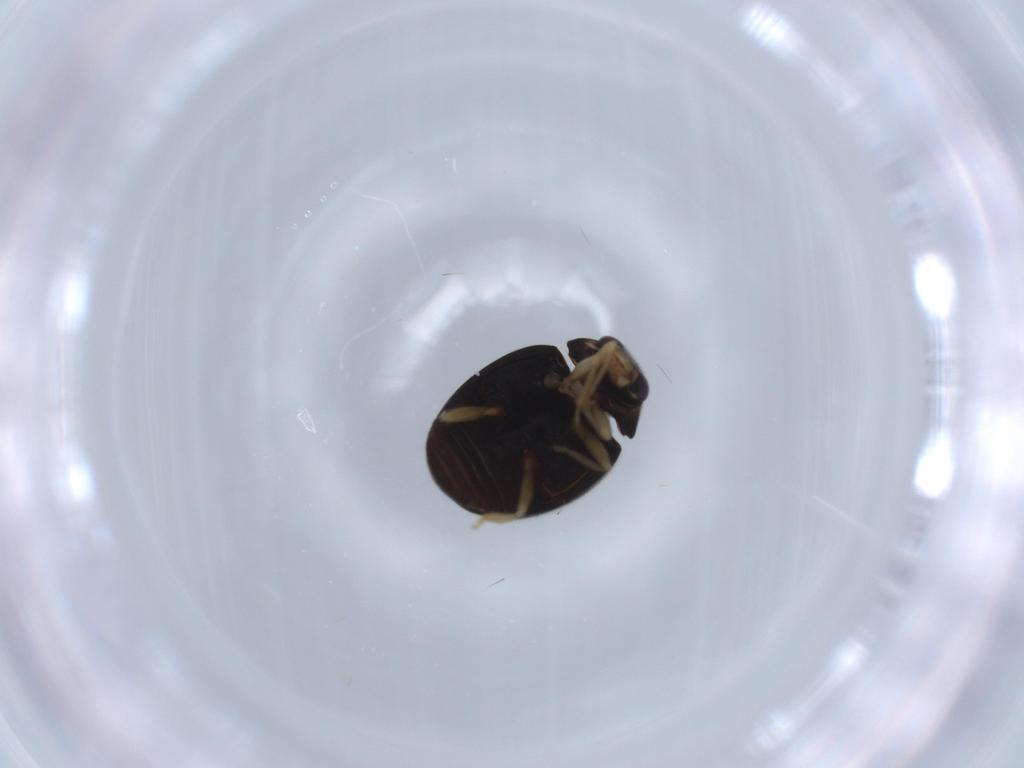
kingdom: Animalia
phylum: Arthropoda
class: Insecta
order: Coleoptera
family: Coccinellidae
